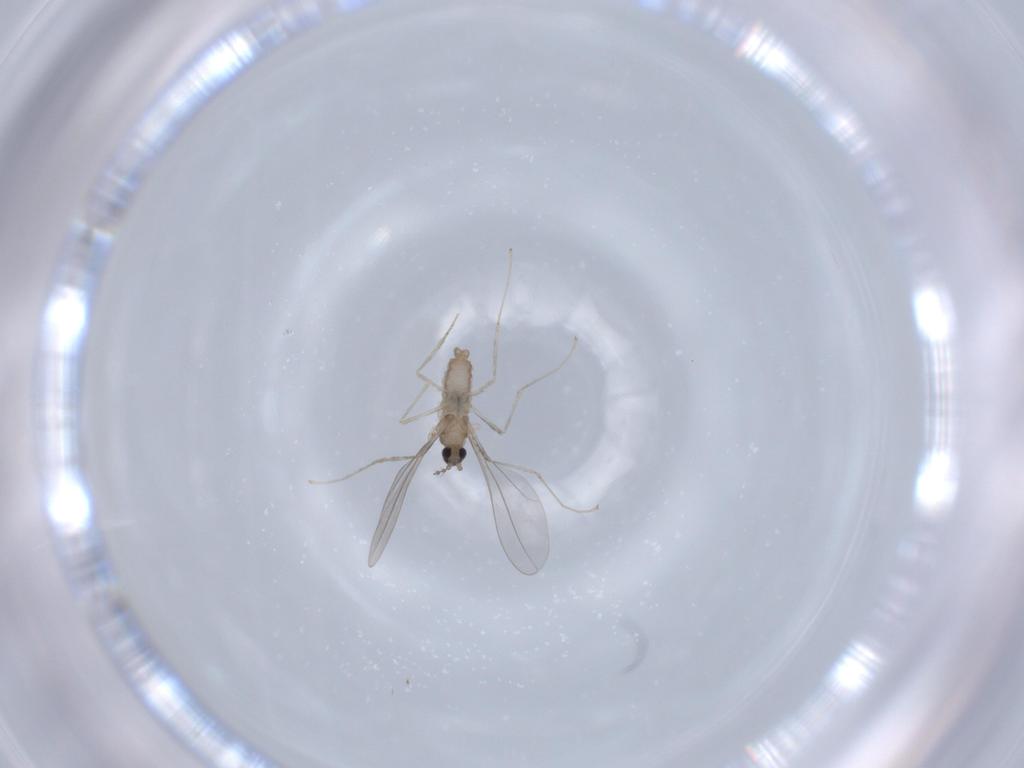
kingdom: Animalia
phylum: Arthropoda
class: Insecta
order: Diptera
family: Cecidomyiidae
